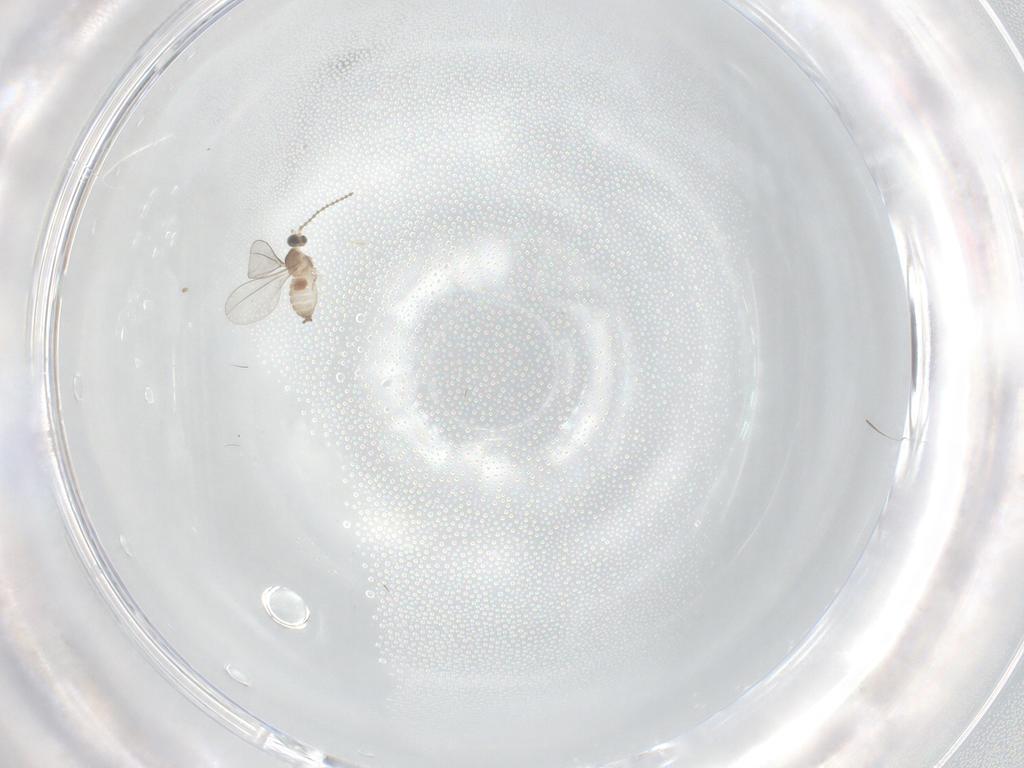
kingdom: Animalia
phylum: Arthropoda
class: Insecta
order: Diptera
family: Cecidomyiidae
